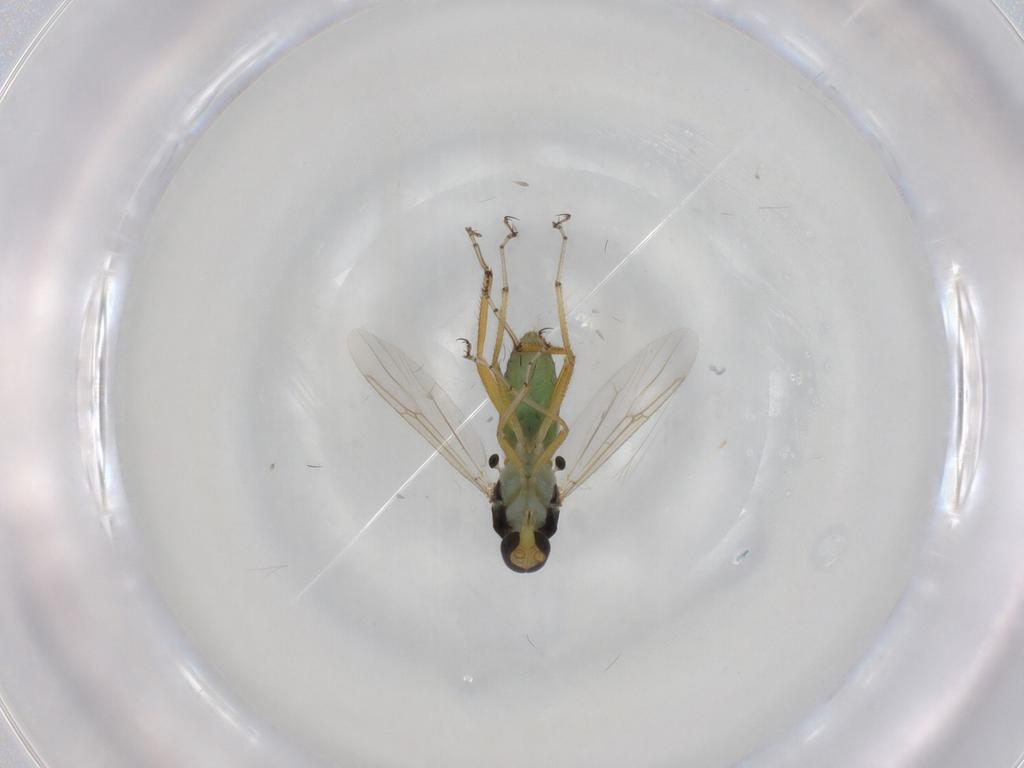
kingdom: Animalia
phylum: Arthropoda
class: Insecta
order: Diptera
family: Ceratopogonidae
